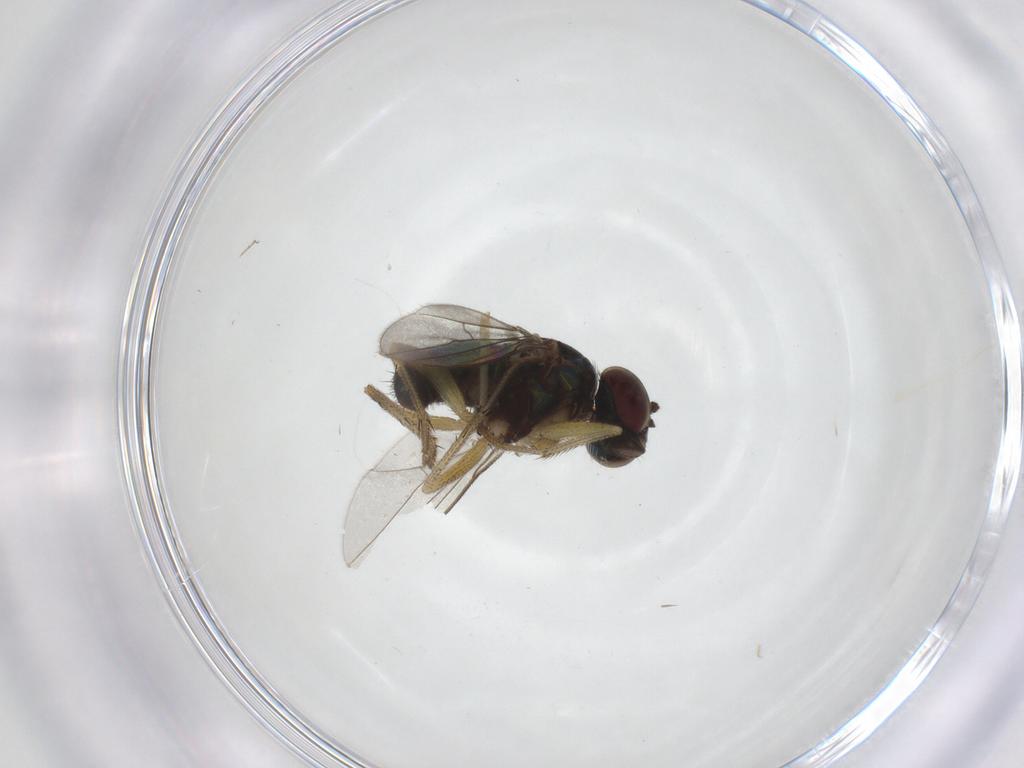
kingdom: Animalia
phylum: Arthropoda
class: Insecta
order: Diptera
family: Chironomidae
